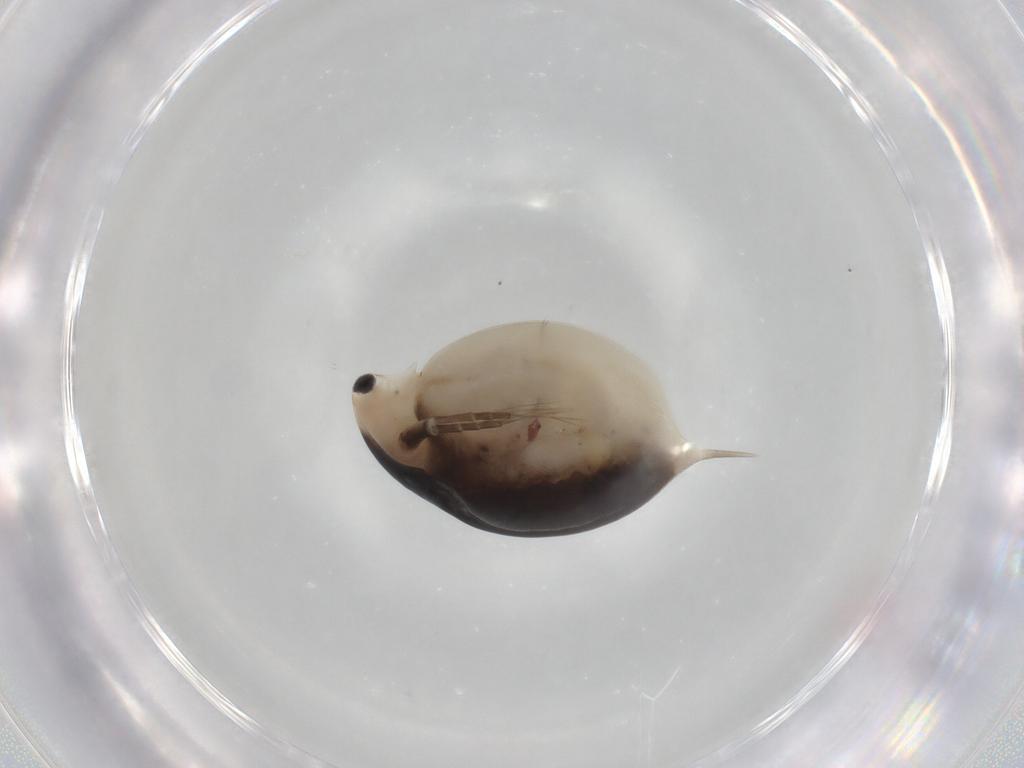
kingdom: Animalia
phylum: Arthropoda
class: Branchiopoda
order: Diplostraca
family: Daphniidae
